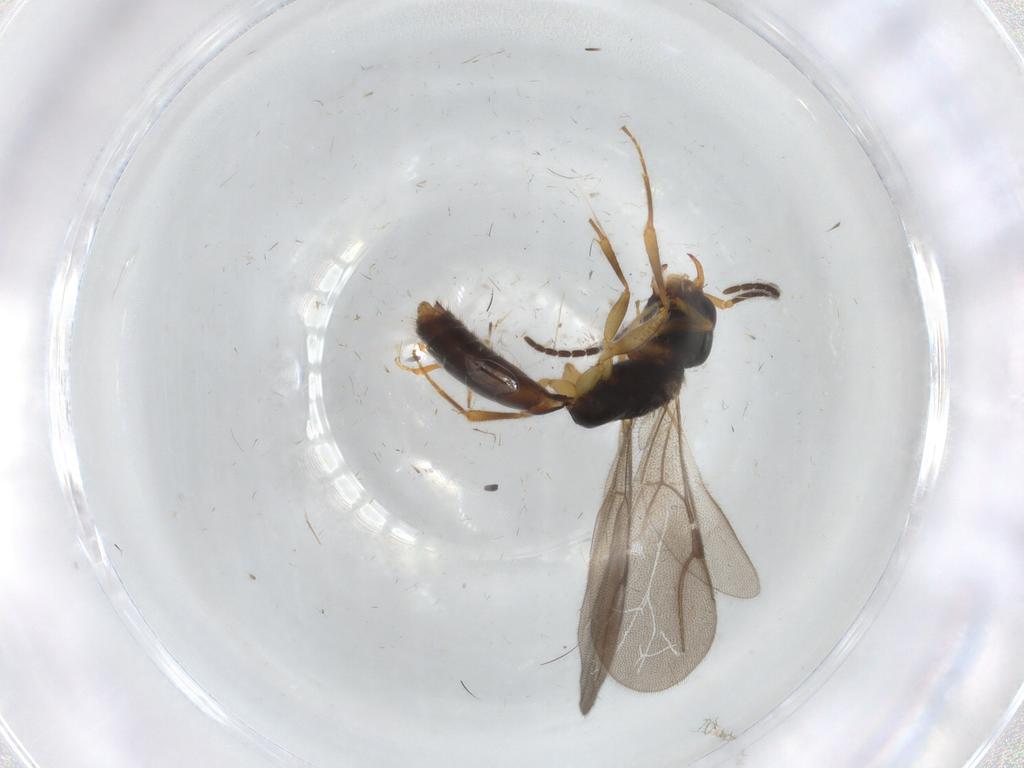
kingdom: Animalia
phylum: Arthropoda
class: Insecta
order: Hymenoptera
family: Bethylidae
